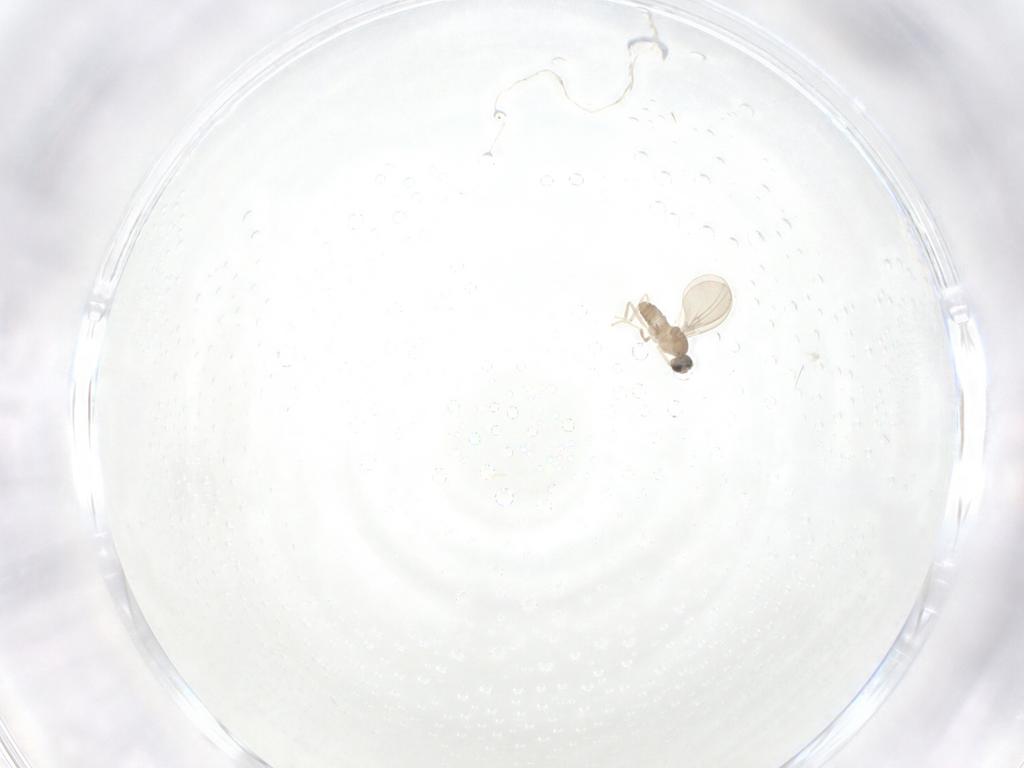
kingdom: Animalia
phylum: Arthropoda
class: Insecta
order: Diptera
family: Chironomidae
